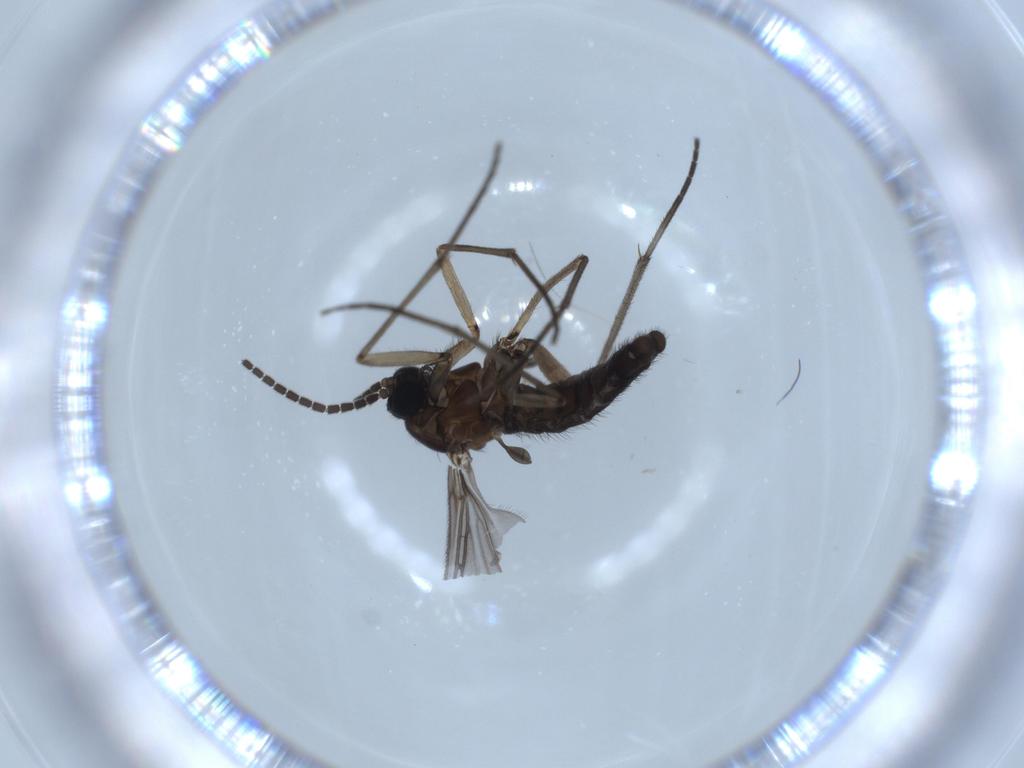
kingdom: Animalia
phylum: Arthropoda
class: Insecta
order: Diptera
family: Sciaridae
